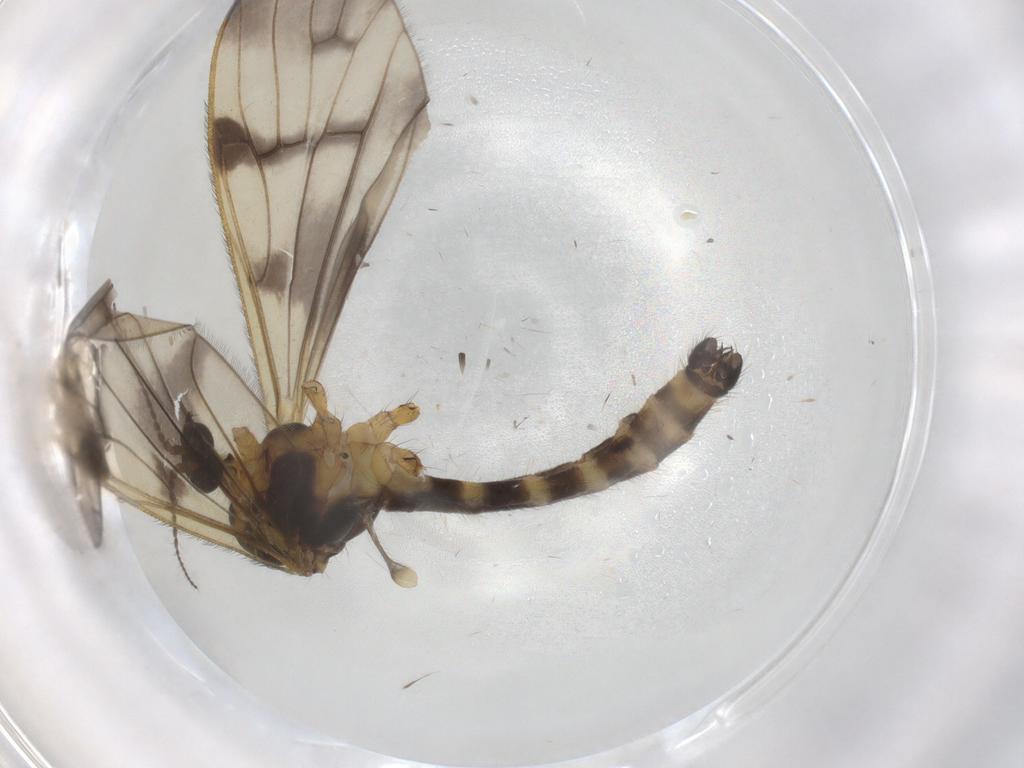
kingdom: Animalia
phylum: Arthropoda
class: Insecta
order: Diptera
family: Limoniidae
